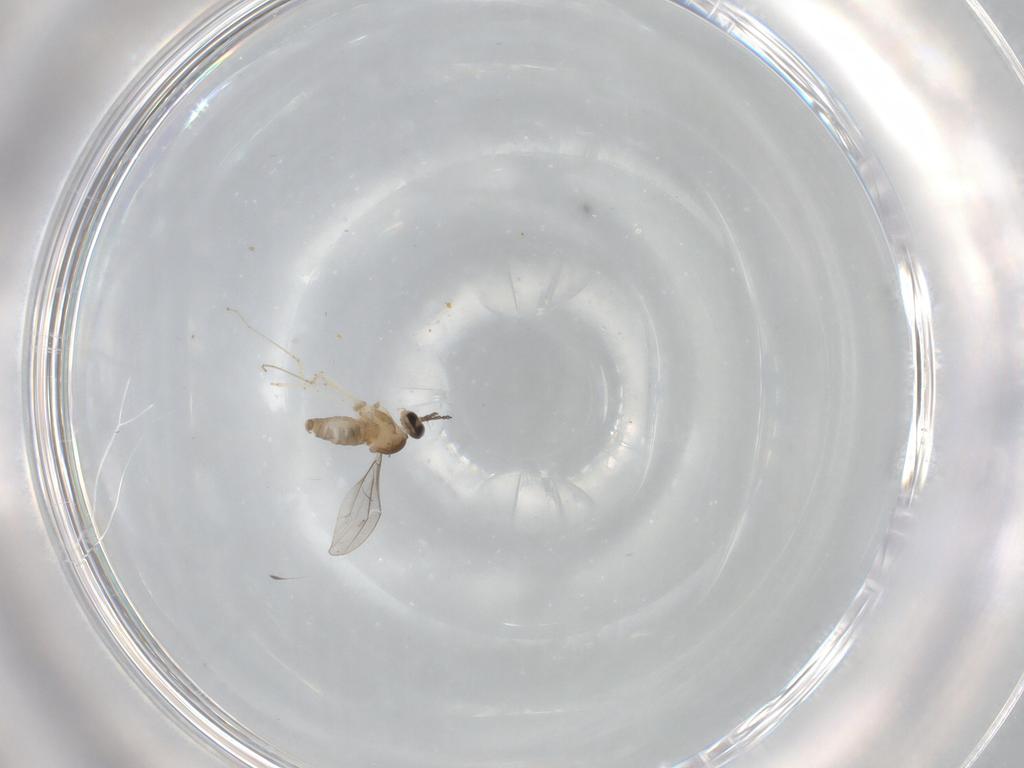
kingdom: Animalia
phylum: Arthropoda
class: Insecta
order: Diptera
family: Cecidomyiidae
